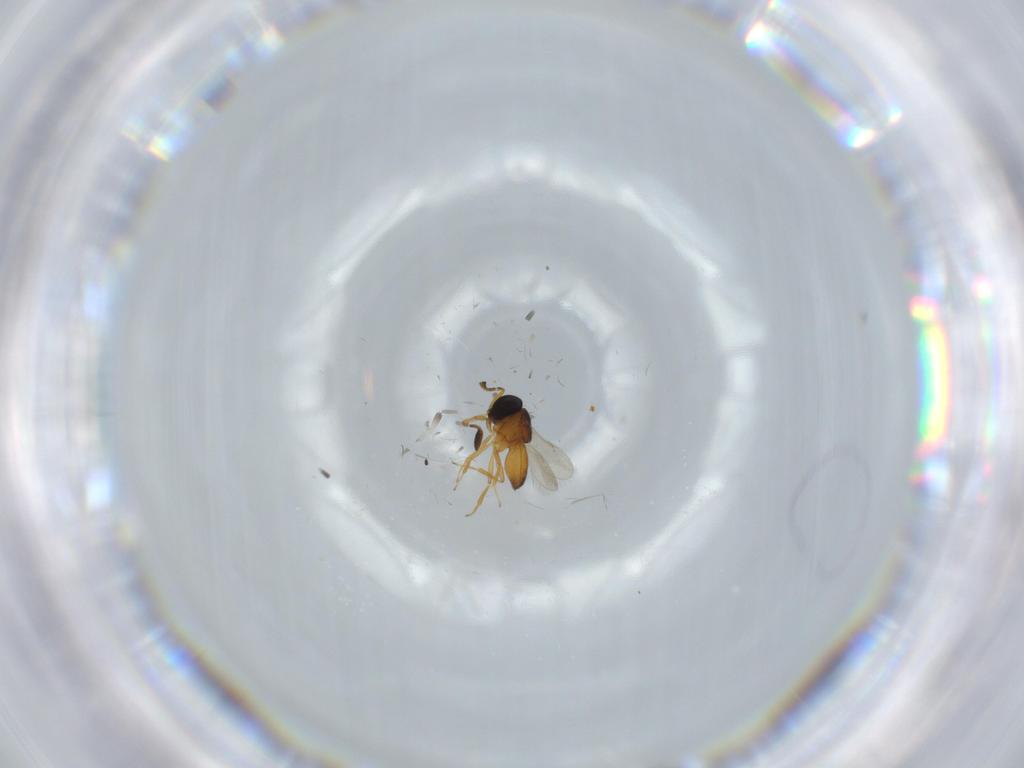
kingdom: Animalia
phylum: Arthropoda
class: Insecta
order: Hymenoptera
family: Scelionidae
